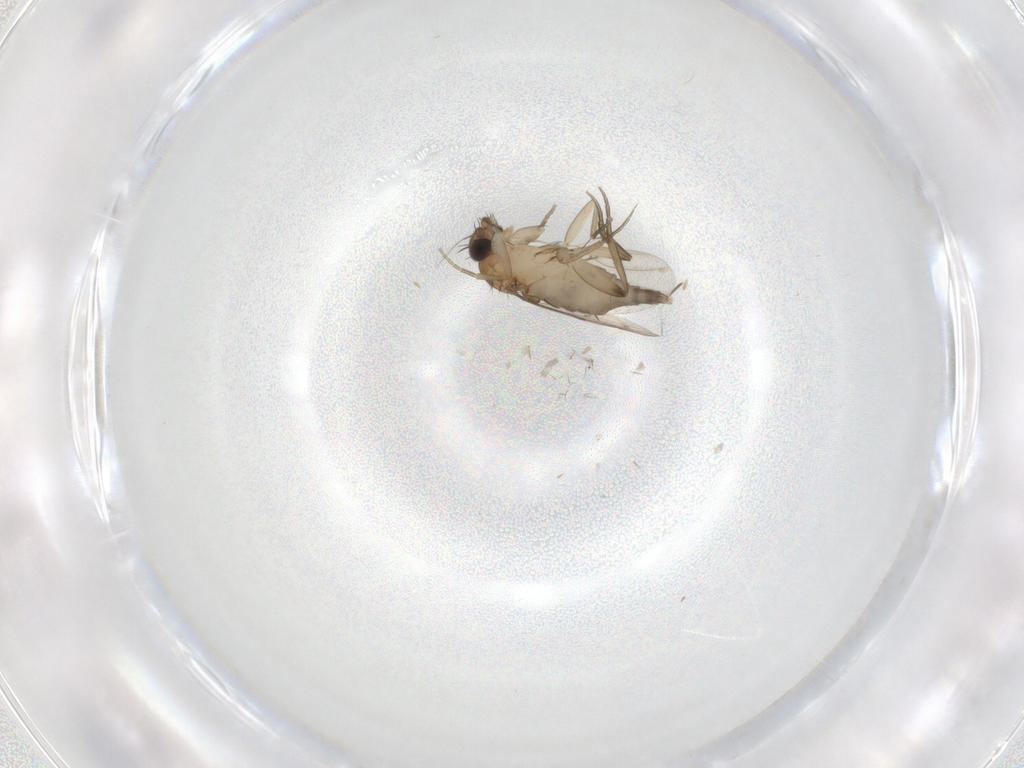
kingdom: Animalia
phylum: Arthropoda
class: Insecta
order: Diptera
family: Phoridae
